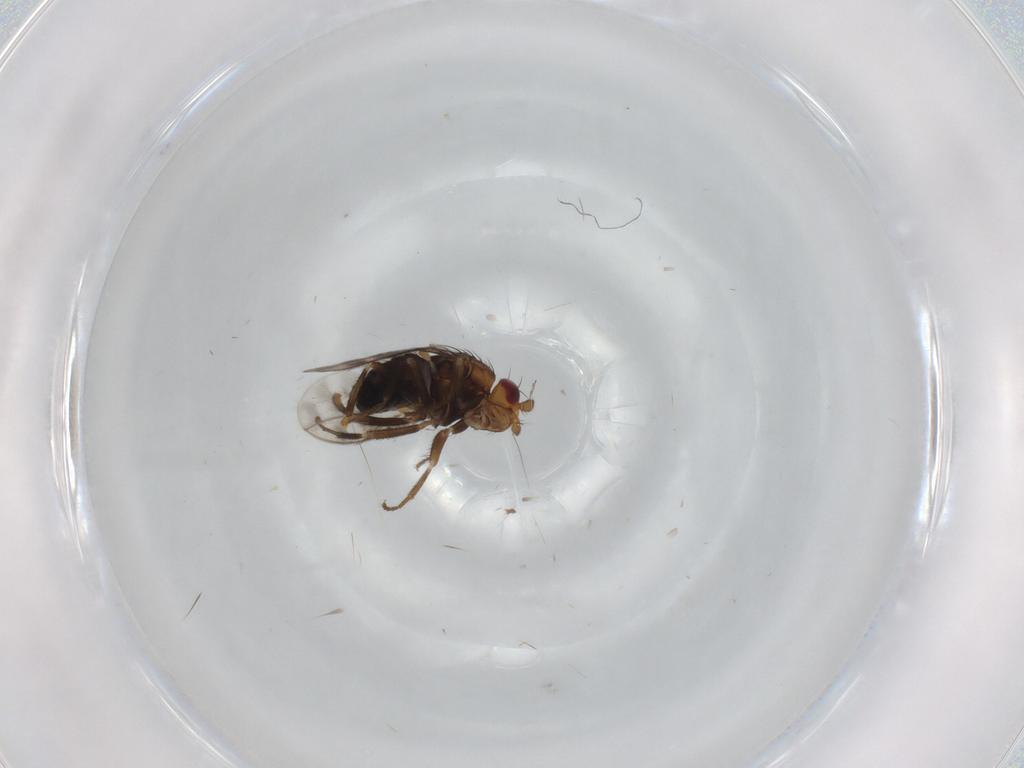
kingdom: Animalia
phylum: Arthropoda
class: Insecta
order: Diptera
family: Sphaeroceridae
